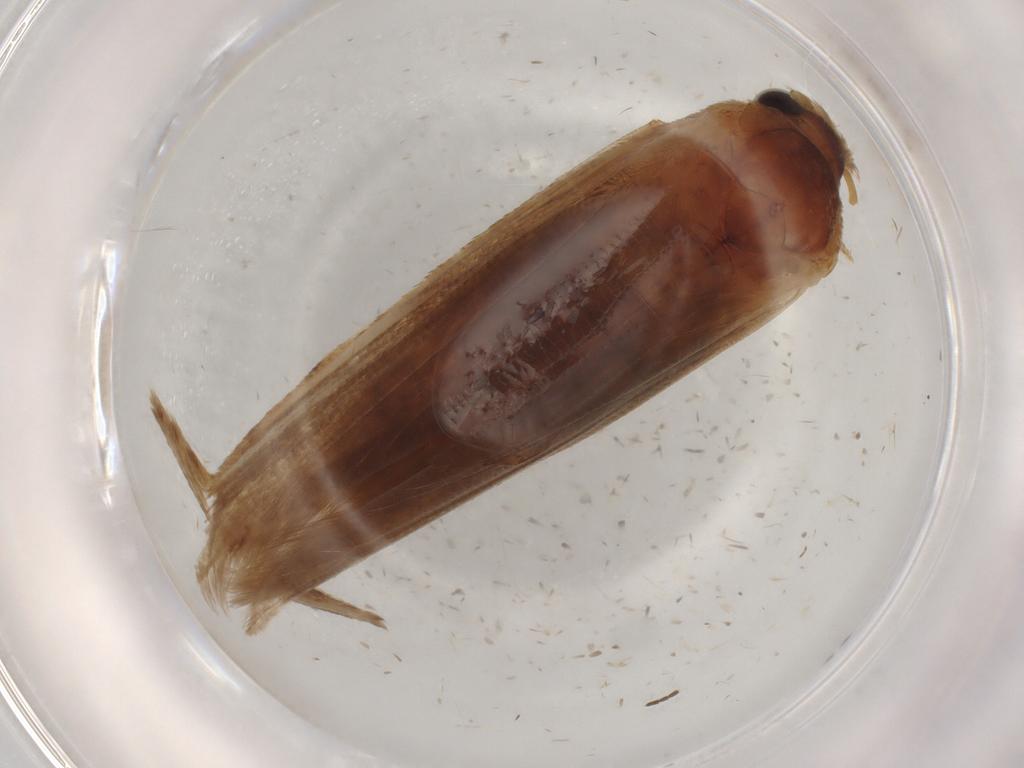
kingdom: Animalia
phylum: Arthropoda
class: Insecta
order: Lepidoptera
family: Blastobasidae
